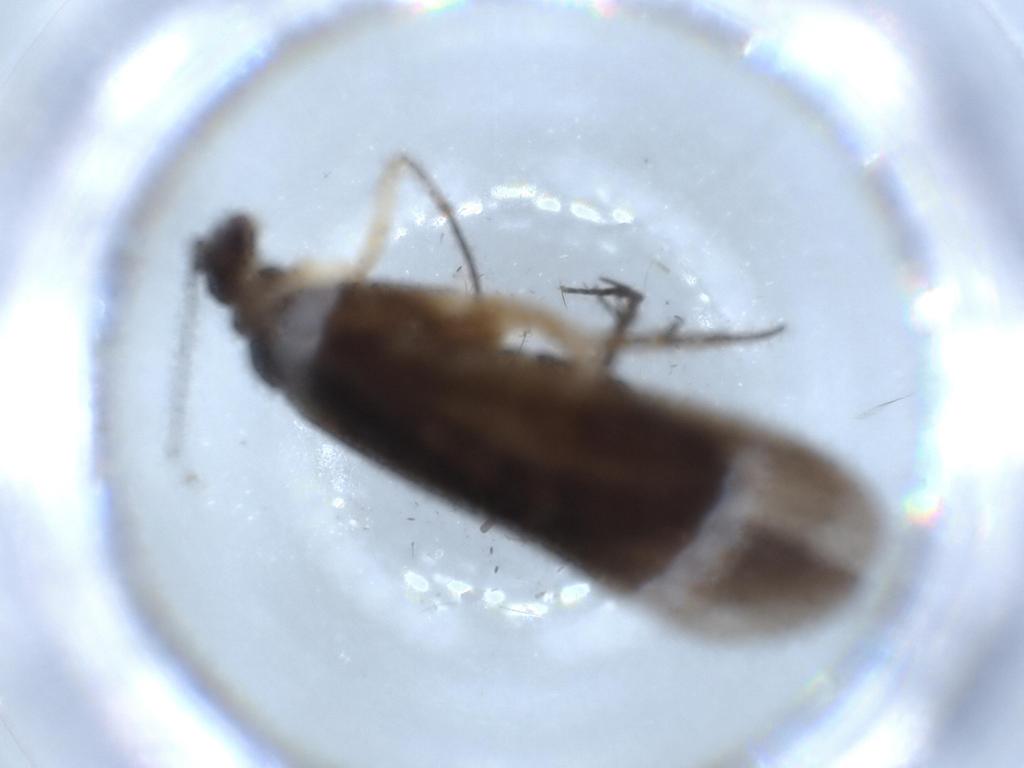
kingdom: Animalia
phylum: Arthropoda
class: Insecta
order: Trichoptera
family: Philopotamidae
